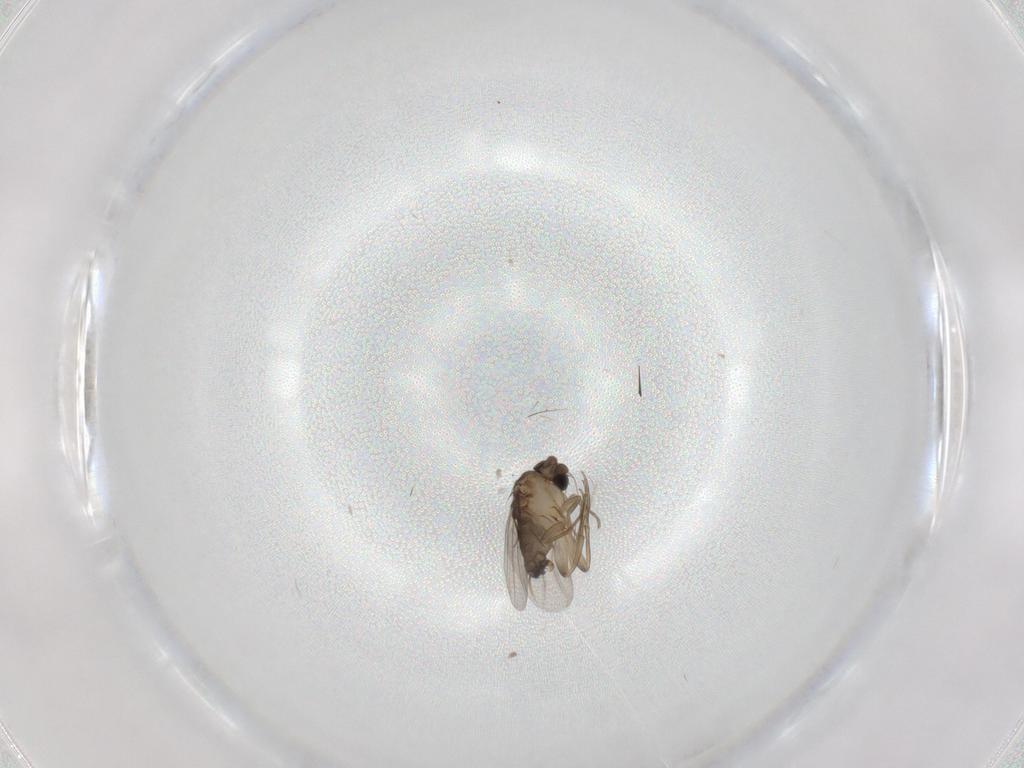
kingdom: Animalia
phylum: Arthropoda
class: Insecta
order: Diptera
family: Phoridae
